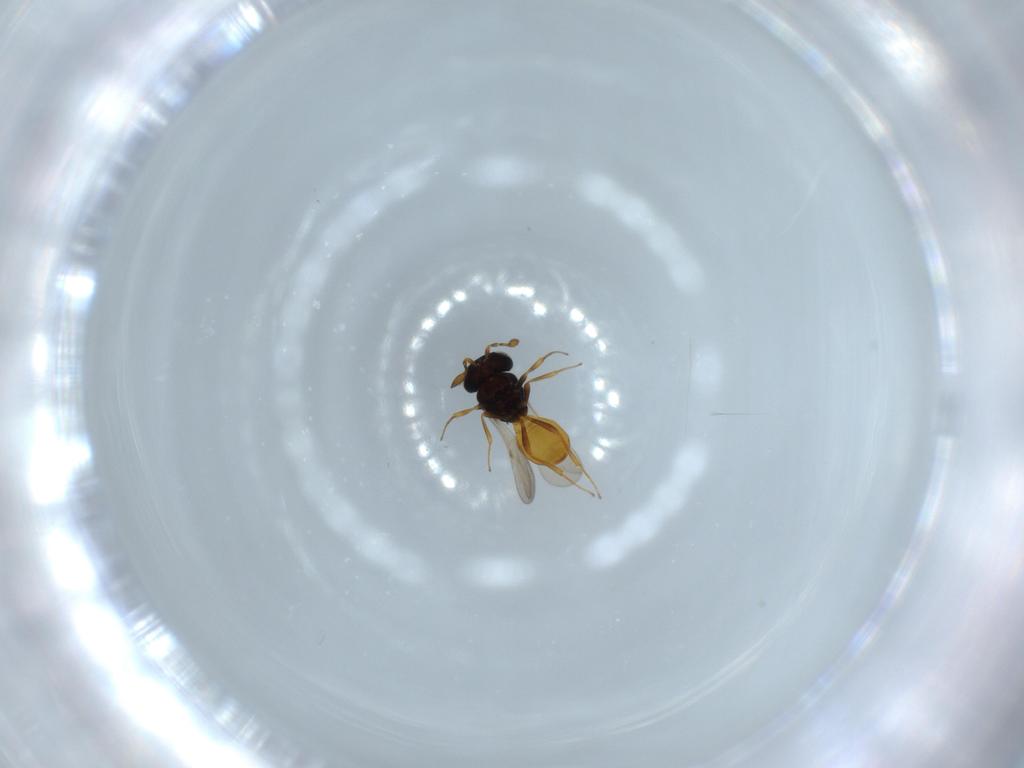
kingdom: Animalia
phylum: Arthropoda
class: Insecta
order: Hymenoptera
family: Scelionidae
